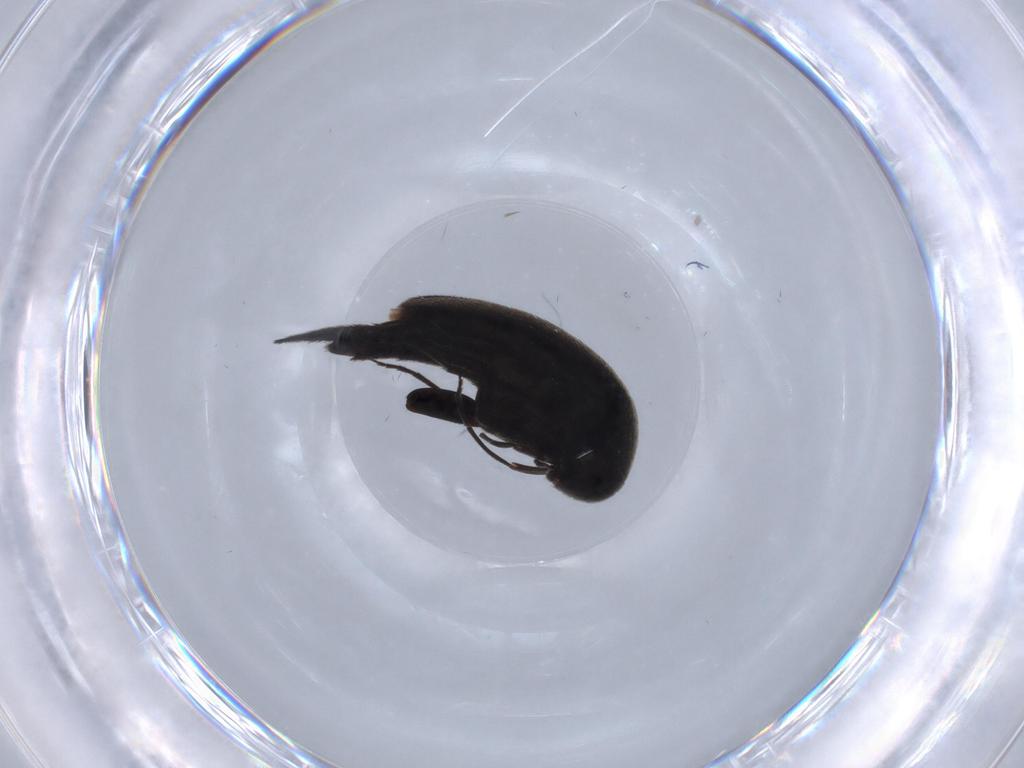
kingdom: Animalia
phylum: Arthropoda
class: Insecta
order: Coleoptera
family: Mordellidae
